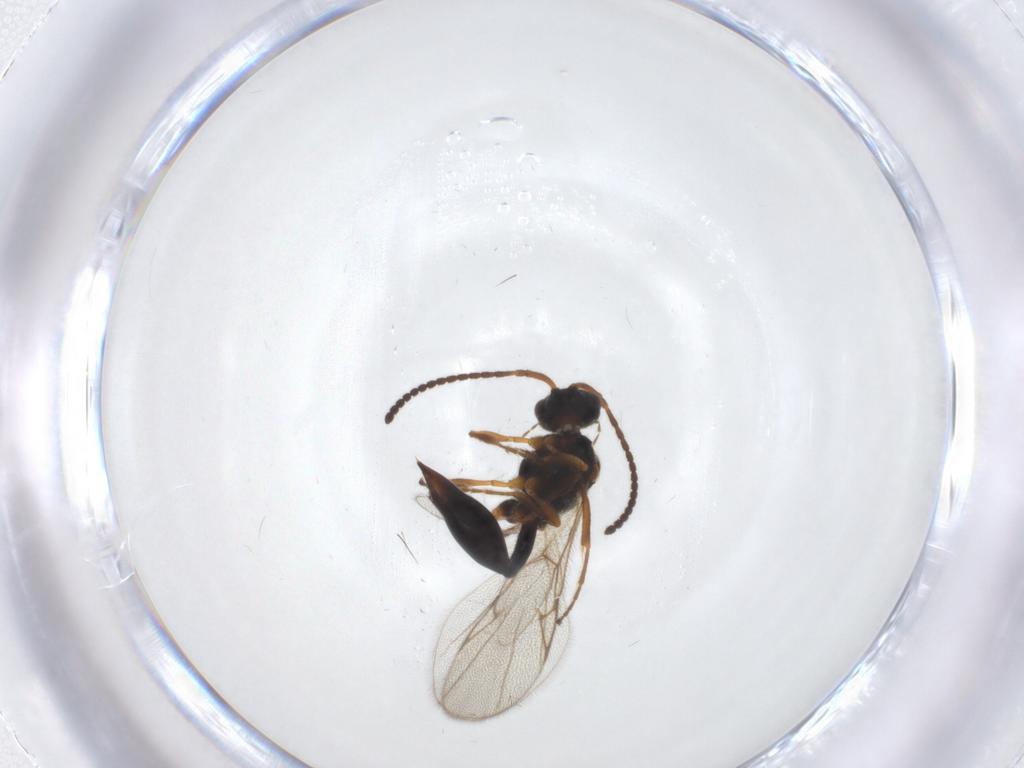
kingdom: Animalia
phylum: Arthropoda
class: Insecta
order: Hymenoptera
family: Diapriidae
